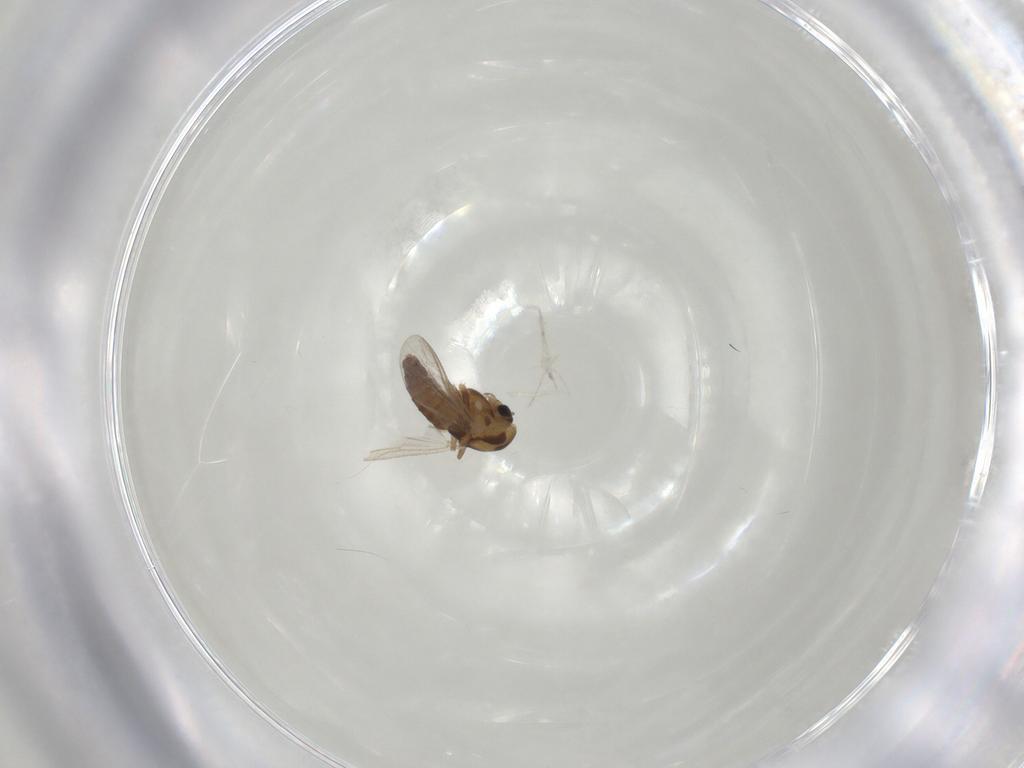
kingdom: Animalia
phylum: Arthropoda
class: Insecta
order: Diptera
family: Chironomidae
